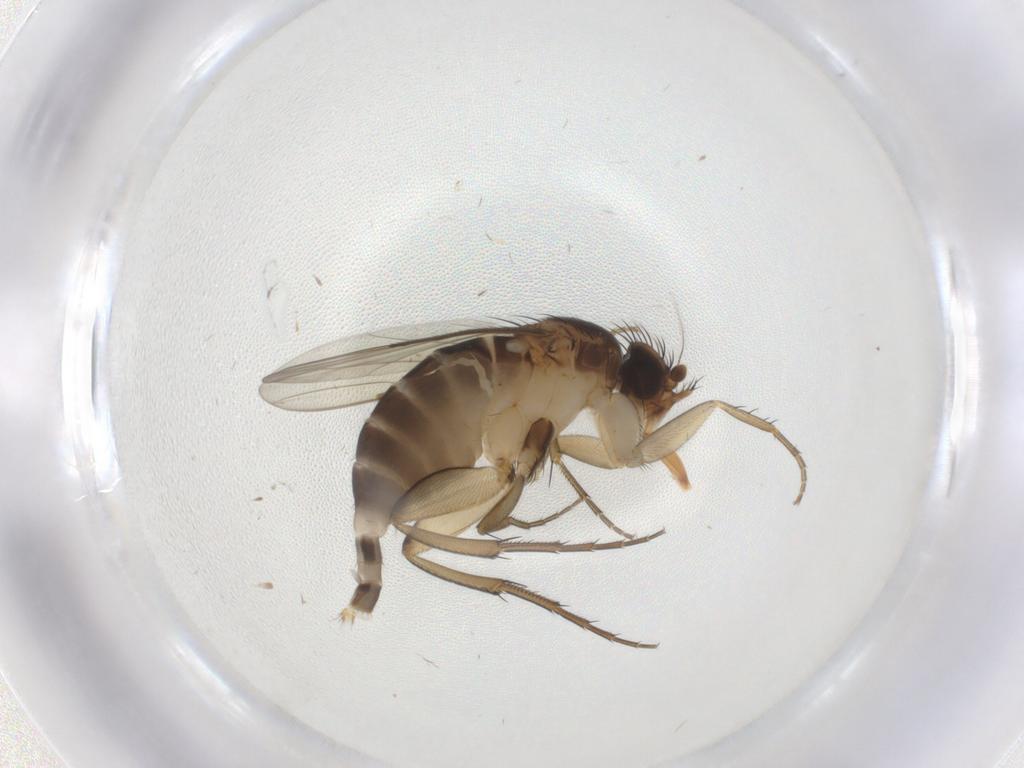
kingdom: Animalia
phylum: Arthropoda
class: Insecta
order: Diptera
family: Phoridae
